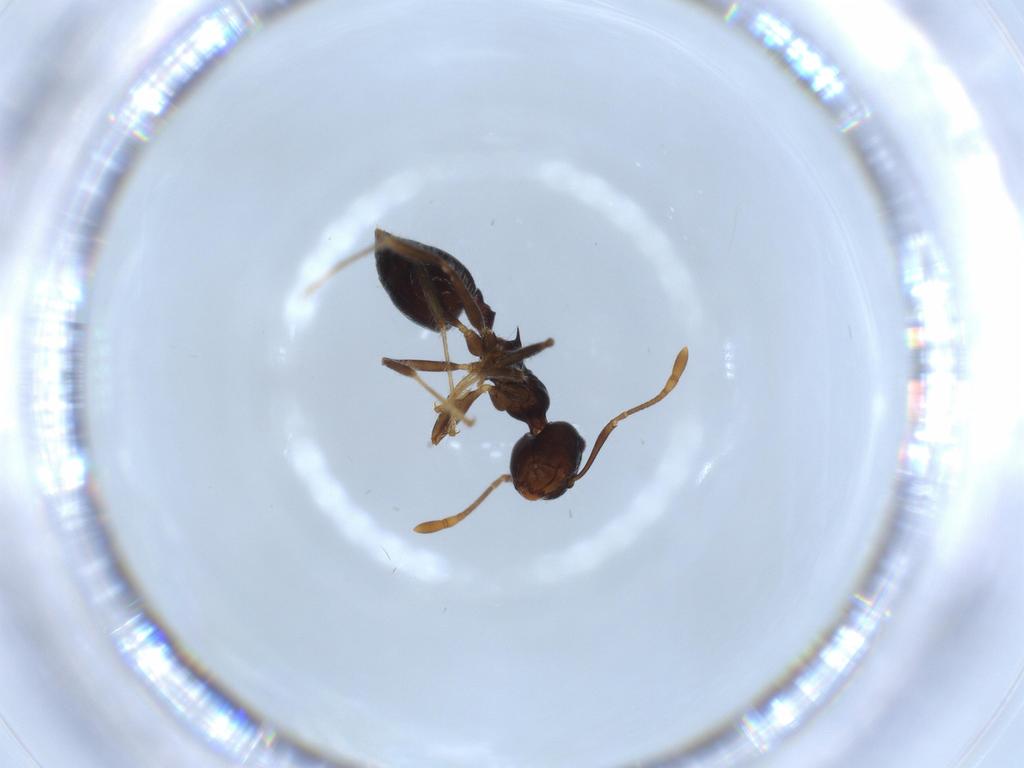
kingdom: Animalia
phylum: Arthropoda
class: Insecta
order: Hymenoptera
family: Formicidae
